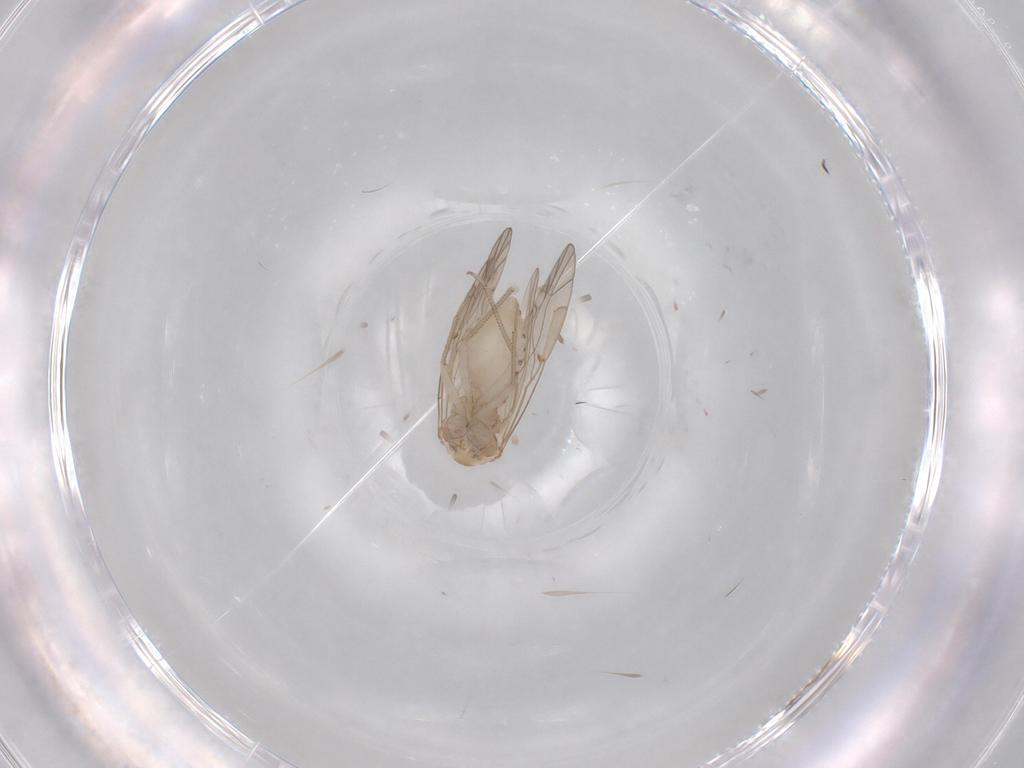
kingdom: Animalia
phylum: Arthropoda
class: Insecta
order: Psocodea
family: Lachesillidae
